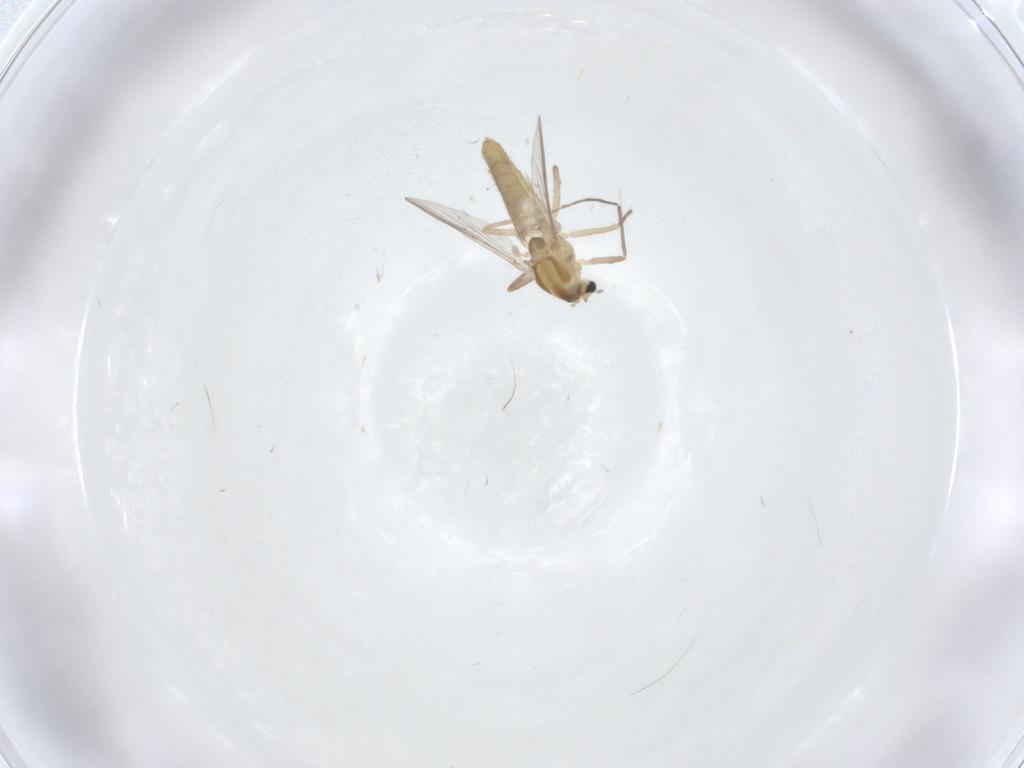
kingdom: Animalia
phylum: Arthropoda
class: Insecta
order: Diptera
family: Chironomidae
